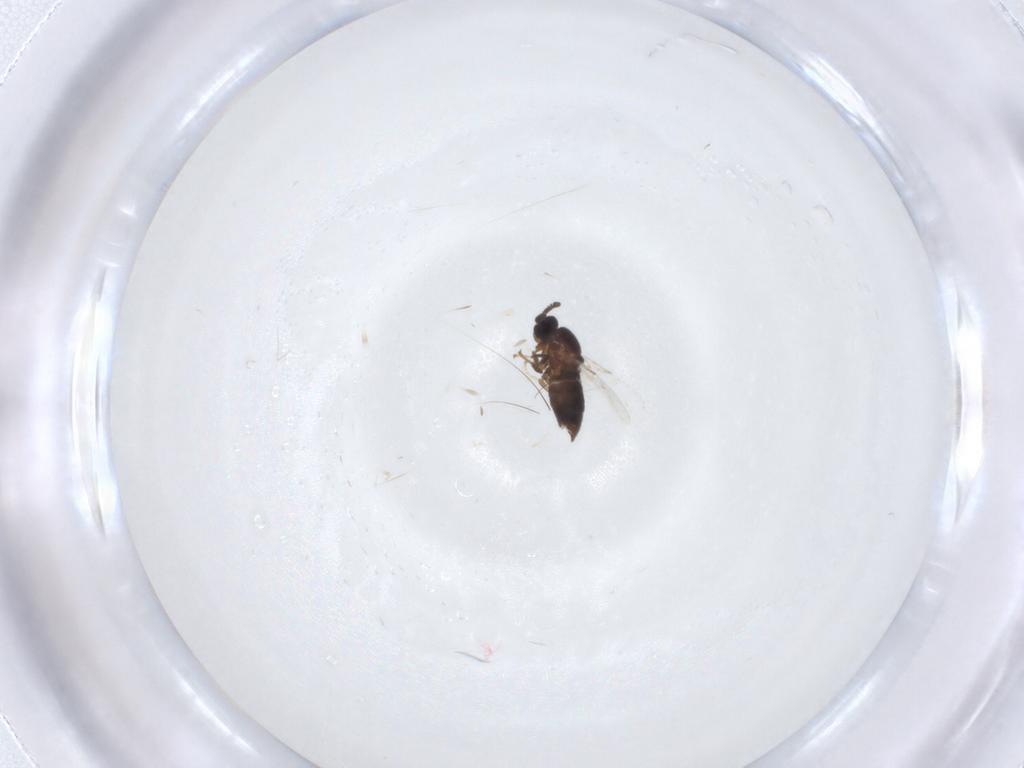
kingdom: Animalia
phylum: Arthropoda
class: Insecta
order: Diptera
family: Scatopsidae
